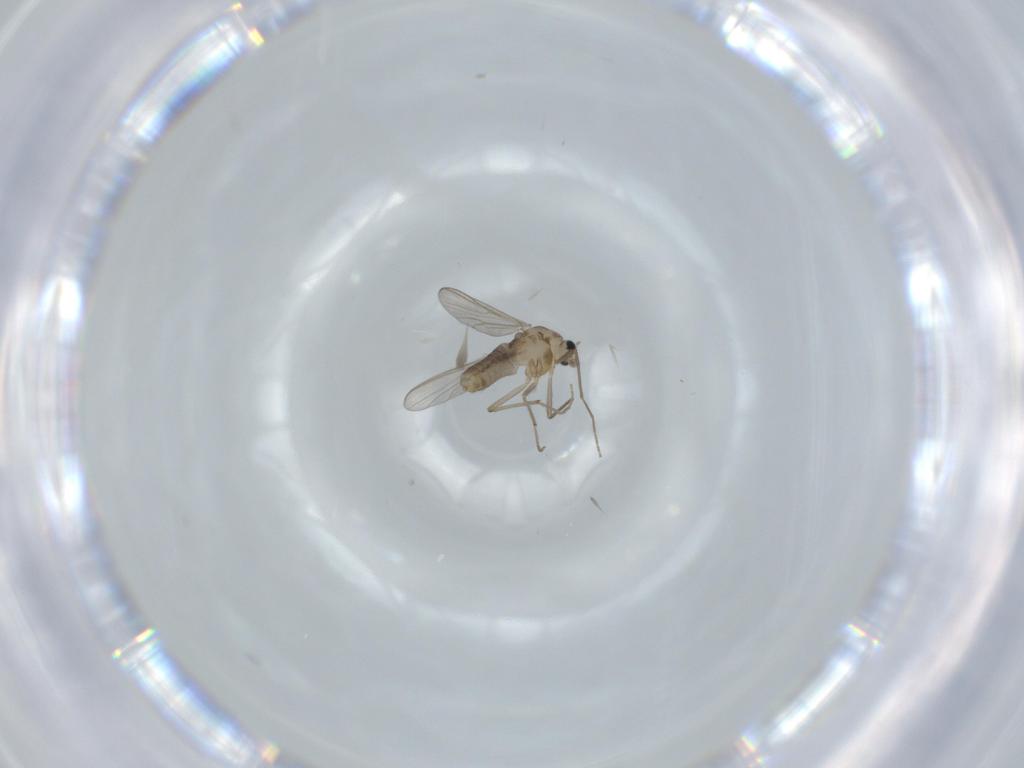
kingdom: Animalia
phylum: Arthropoda
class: Insecta
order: Diptera
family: Chironomidae
